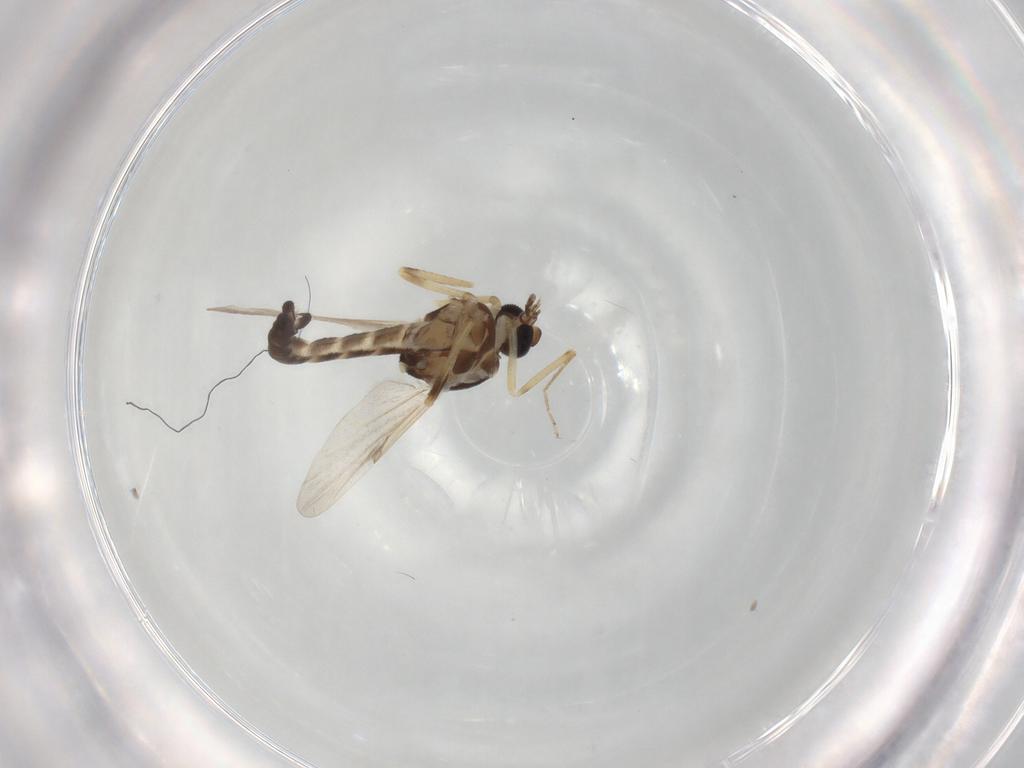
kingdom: Animalia
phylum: Arthropoda
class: Insecta
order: Diptera
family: Ceratopogonidae
